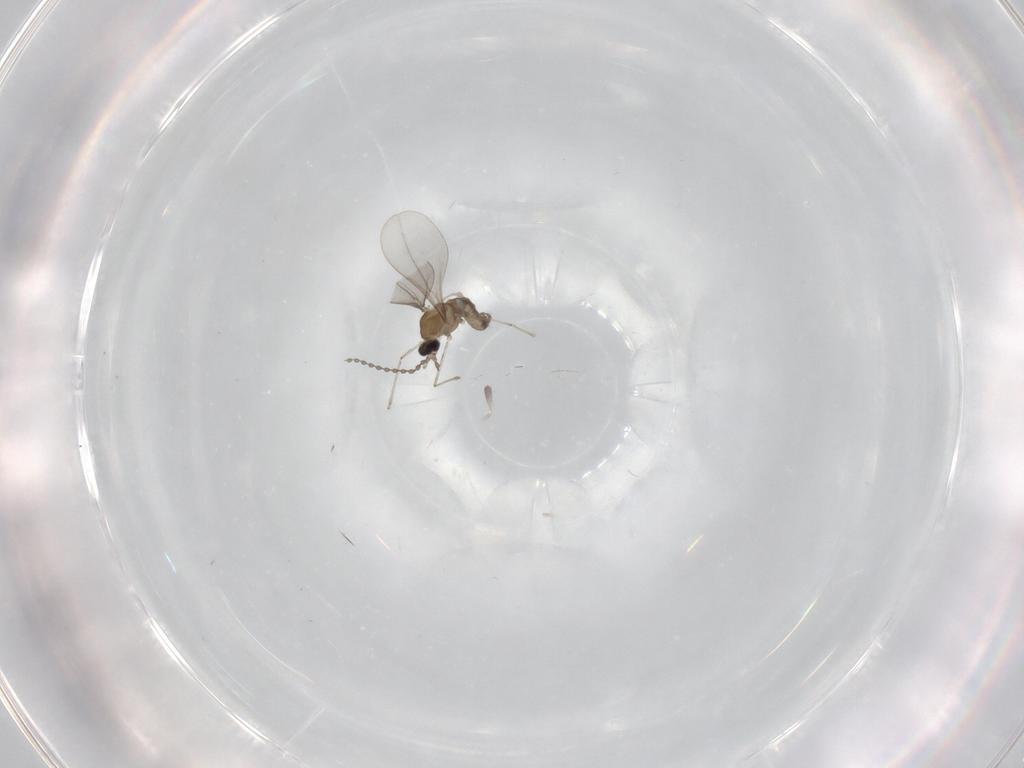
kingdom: Animalia
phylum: Arthropoda
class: Insecta
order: Diptera
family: Cecidomyiidae
